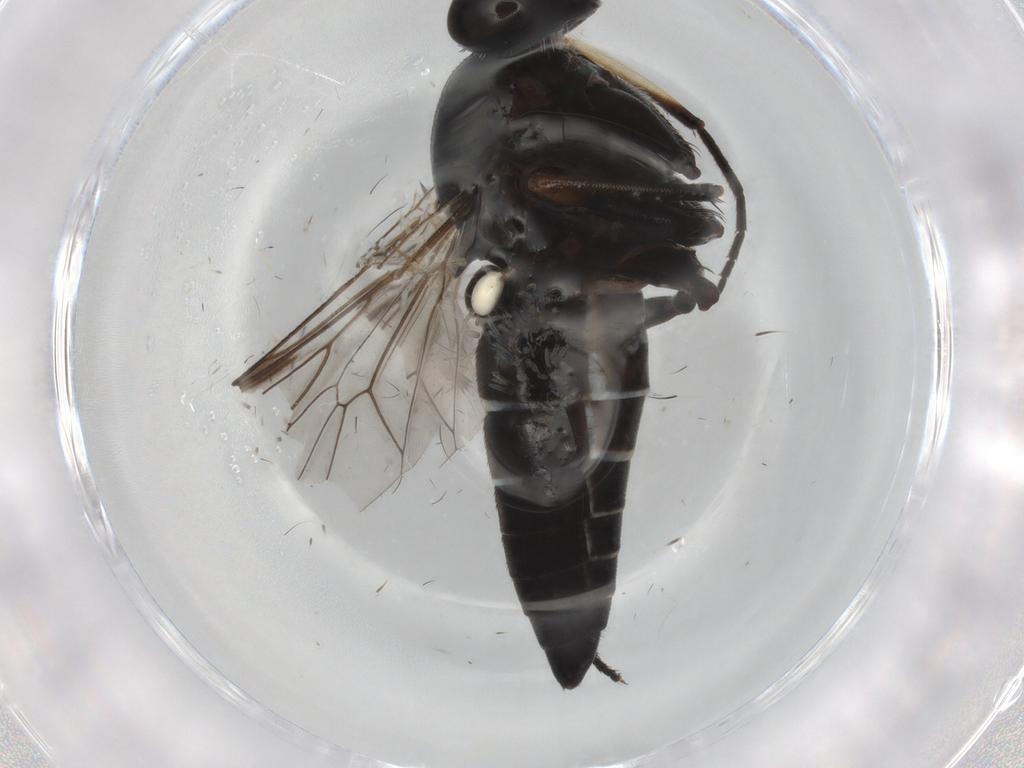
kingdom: Animalia
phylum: Arthropoda
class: Insecta
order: Diptera
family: Therevidae
